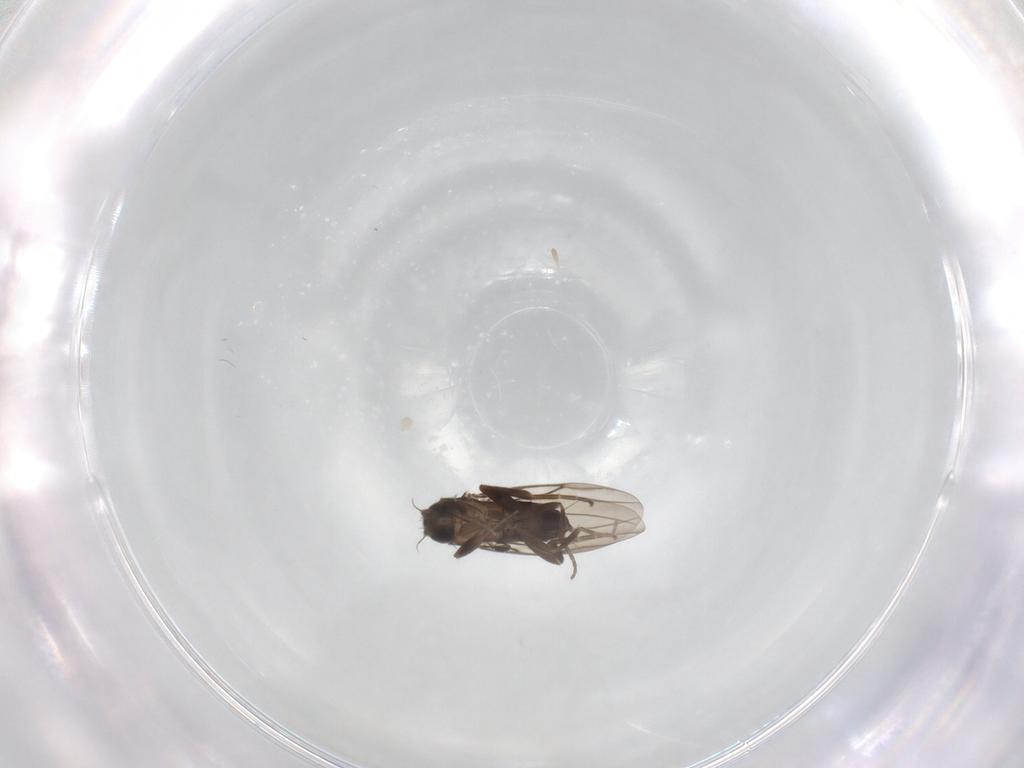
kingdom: Animalia
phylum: Arthropoda
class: Insecta
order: Diptera
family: Phoridae
